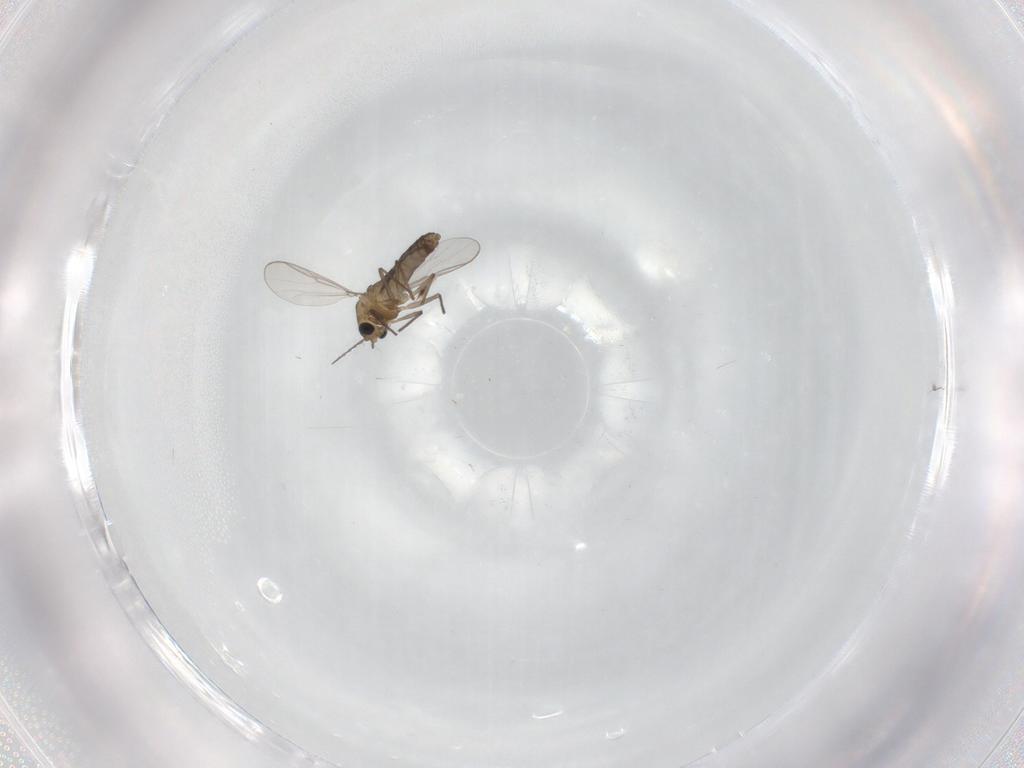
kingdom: Animalia
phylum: Arthropoda
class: Insecta
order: Diptera
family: Chironomidae
